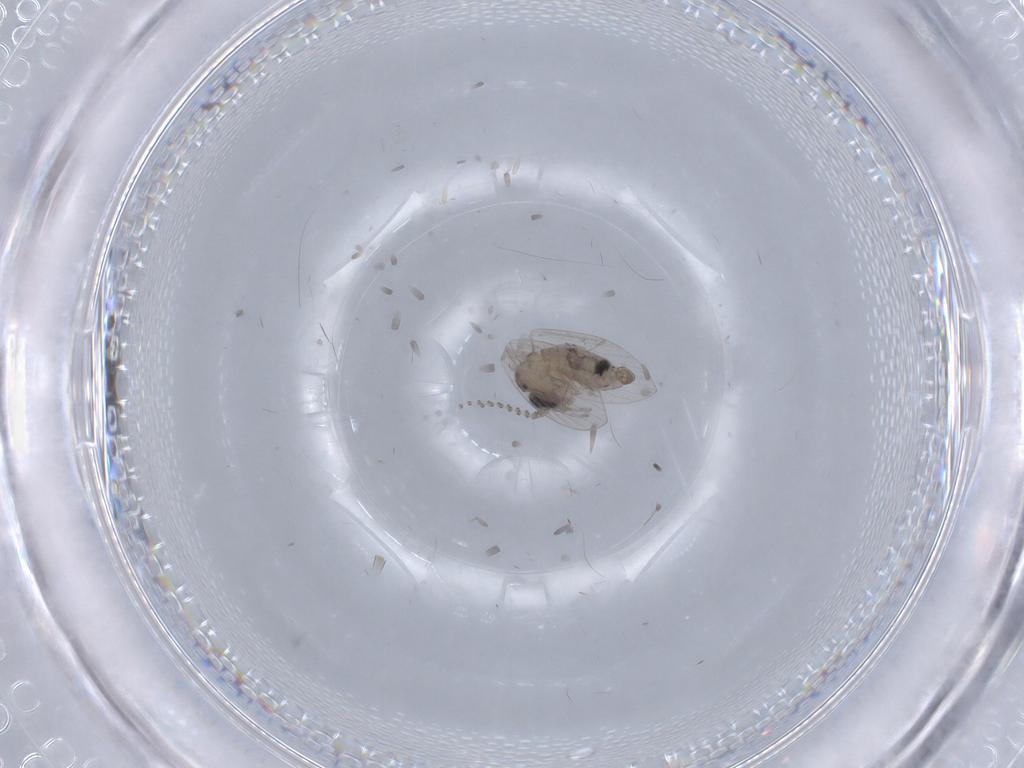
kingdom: Animalia
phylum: Arthropoda
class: Insecta
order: Diptera
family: Psychodidae
